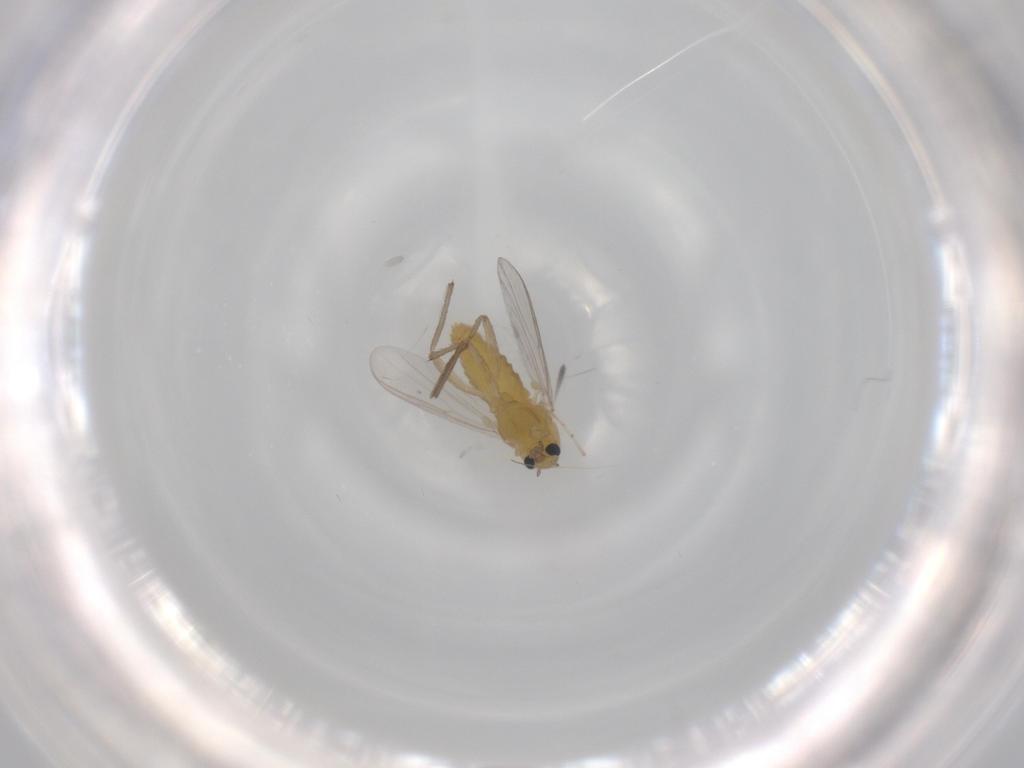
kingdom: Animalia
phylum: Arthropoda
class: Insecta
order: Diptera
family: Chironomidae
